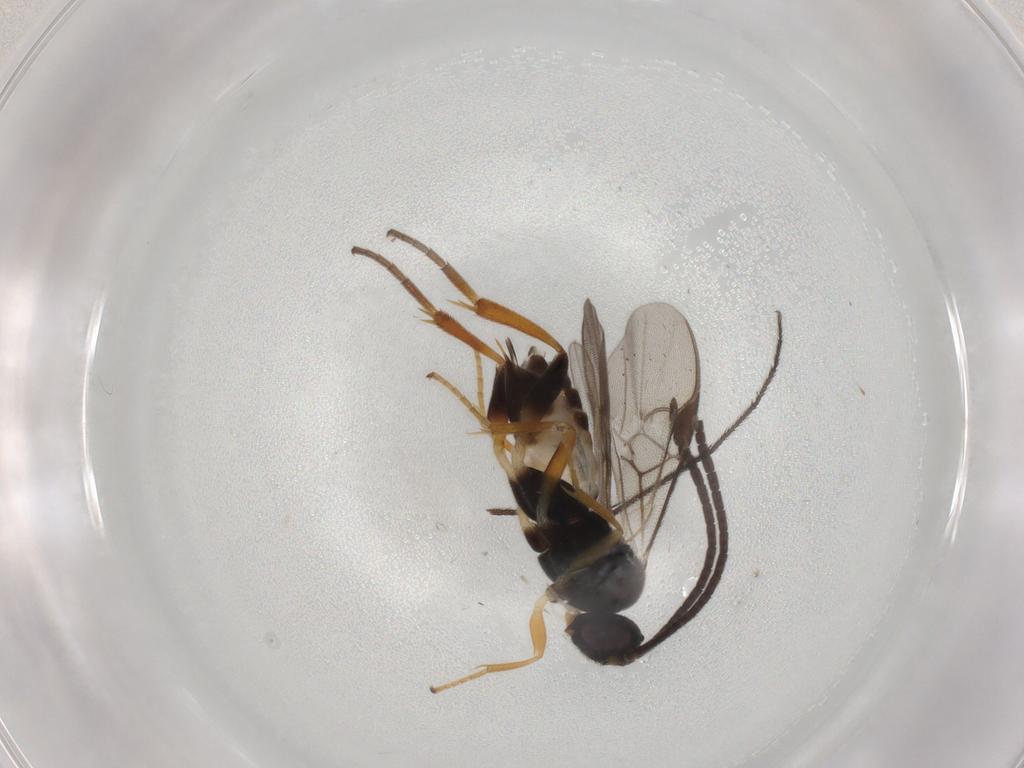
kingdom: Animalia
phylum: Arthropoda
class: Insecta
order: Hymenoptera
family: Braconidae
